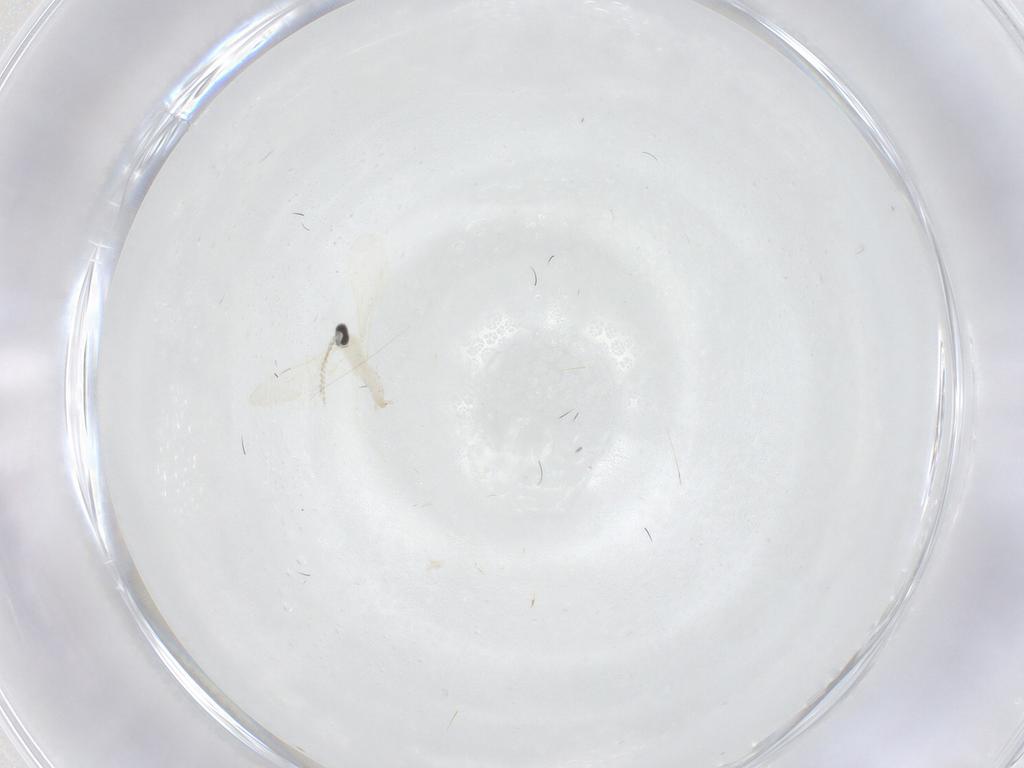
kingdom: Animalia
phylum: Arthropoda
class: Insecta
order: Diptera
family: Cecidomyiidae
